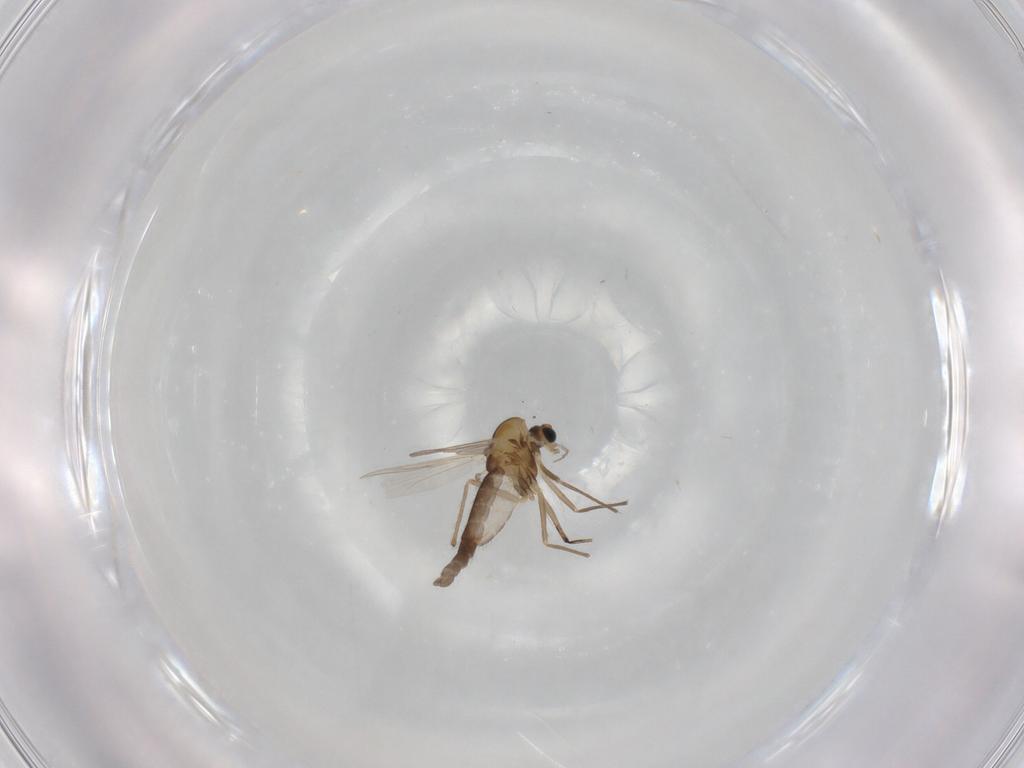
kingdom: Animalia
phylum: Arthropoda
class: Insecta
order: Diptera
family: Chironomidae
